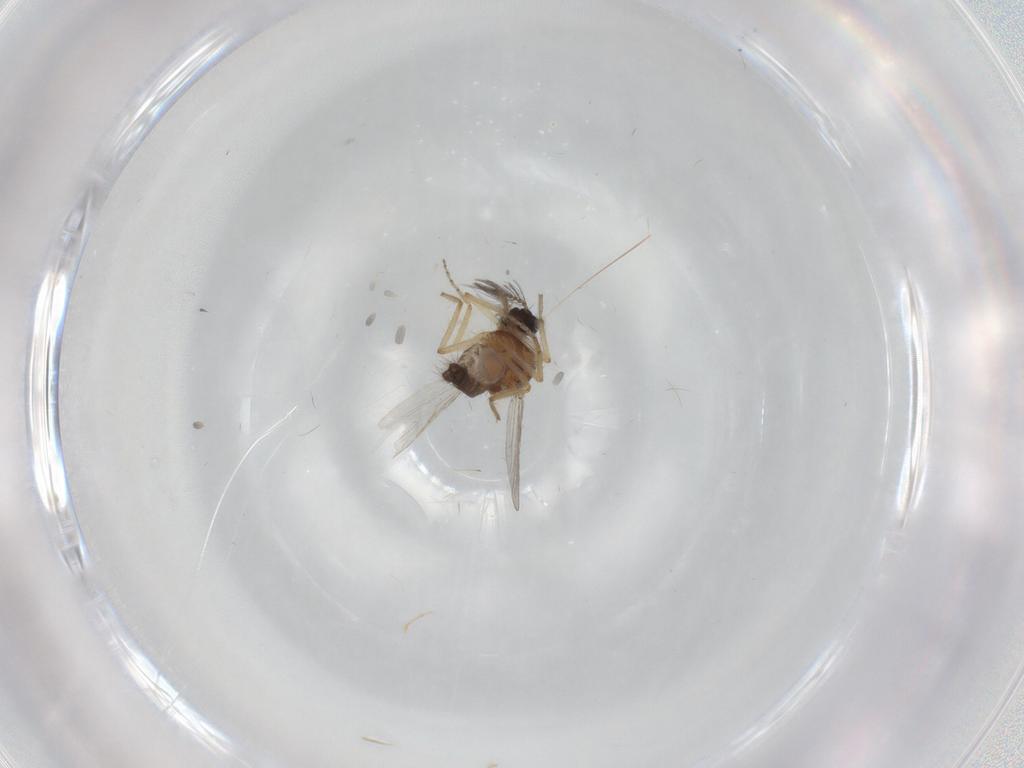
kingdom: Animalia
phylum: Arthropoda
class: Insecta
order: Diptera
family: Ceratopogonidae
